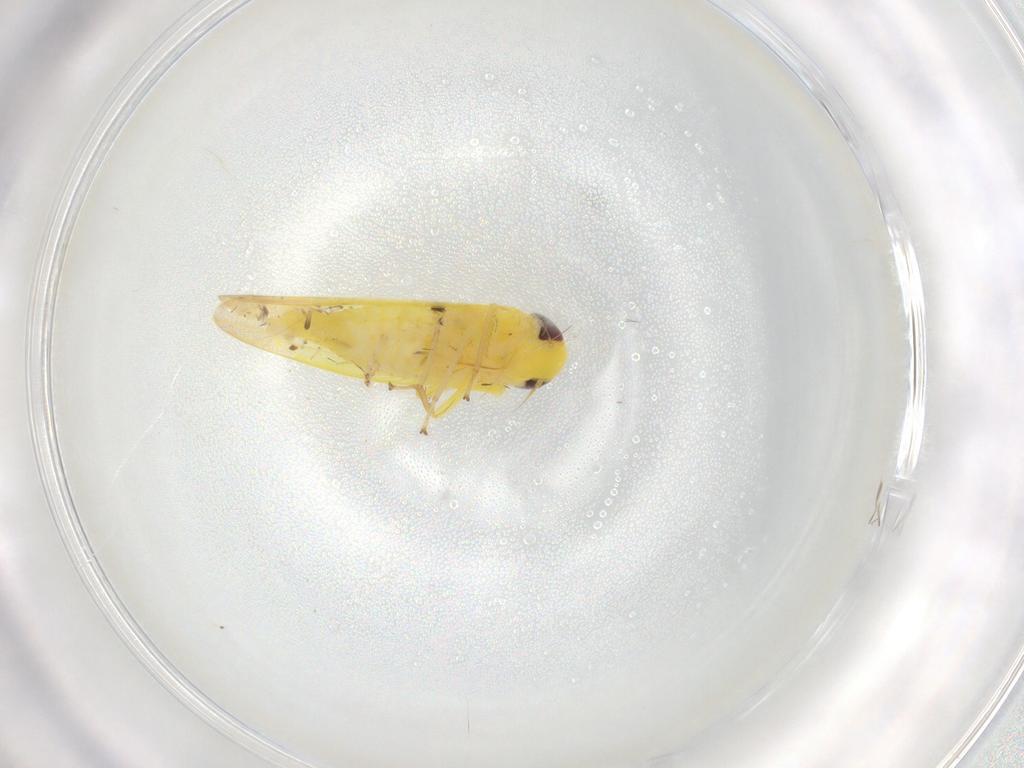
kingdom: Animalia
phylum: Arthropoda
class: Insecta
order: Hemiptera
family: Cicadellidae
